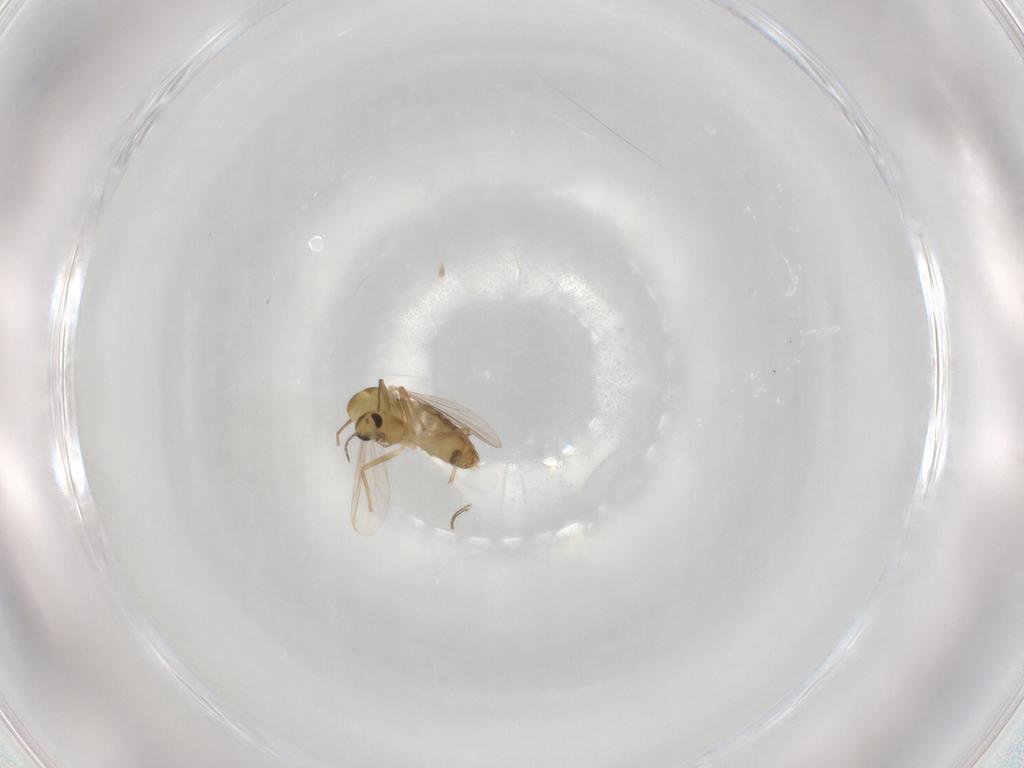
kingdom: Animalia
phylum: Arthropoda
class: Insecta
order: Diptera
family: Chironomidae
